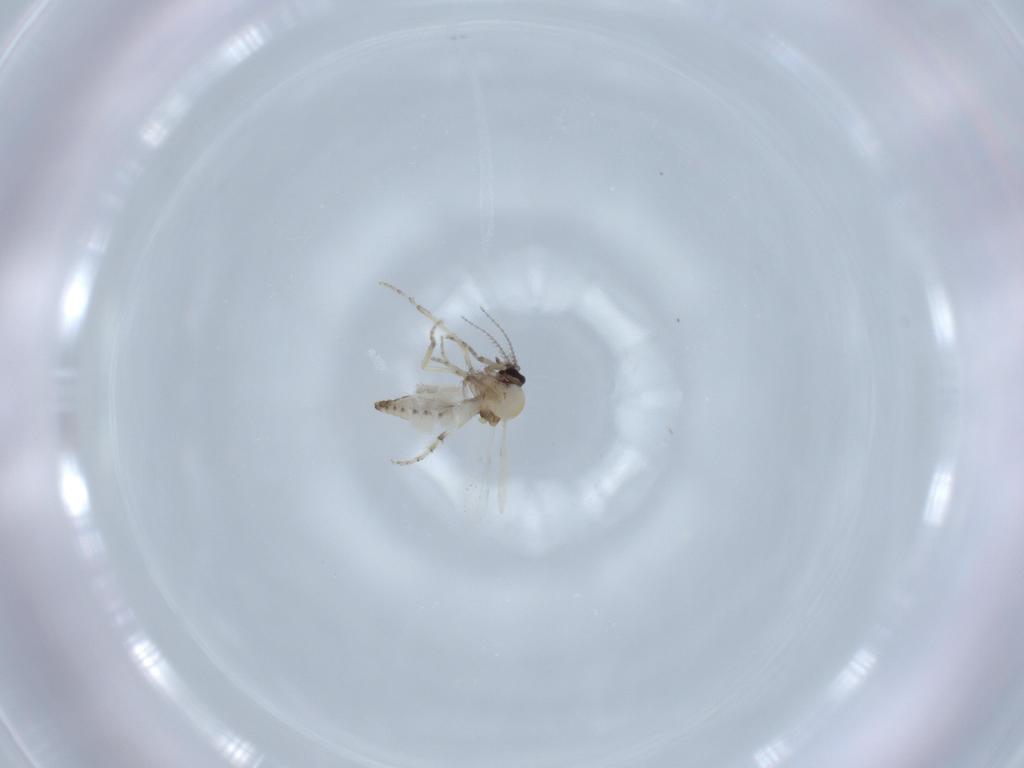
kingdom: Animalia
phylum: Arthropoda
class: Insecta
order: Diptera
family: Ceratopogonidae
